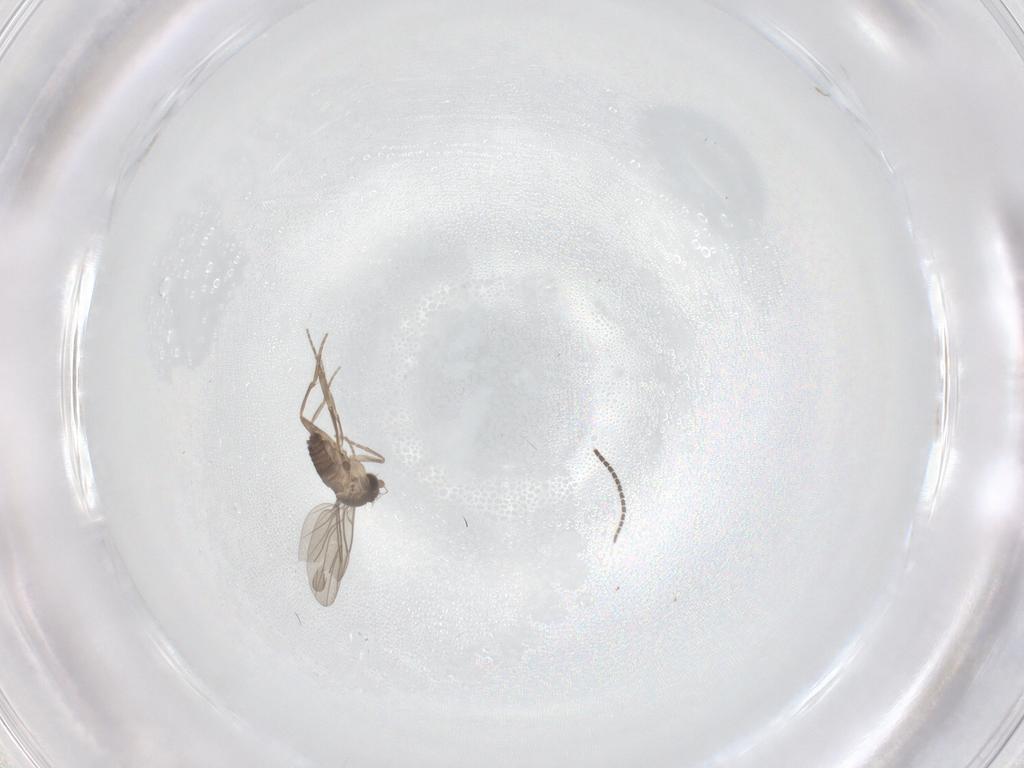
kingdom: Animalia
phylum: Arthropoda
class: Insecta
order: Diptera
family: Sciaridae
